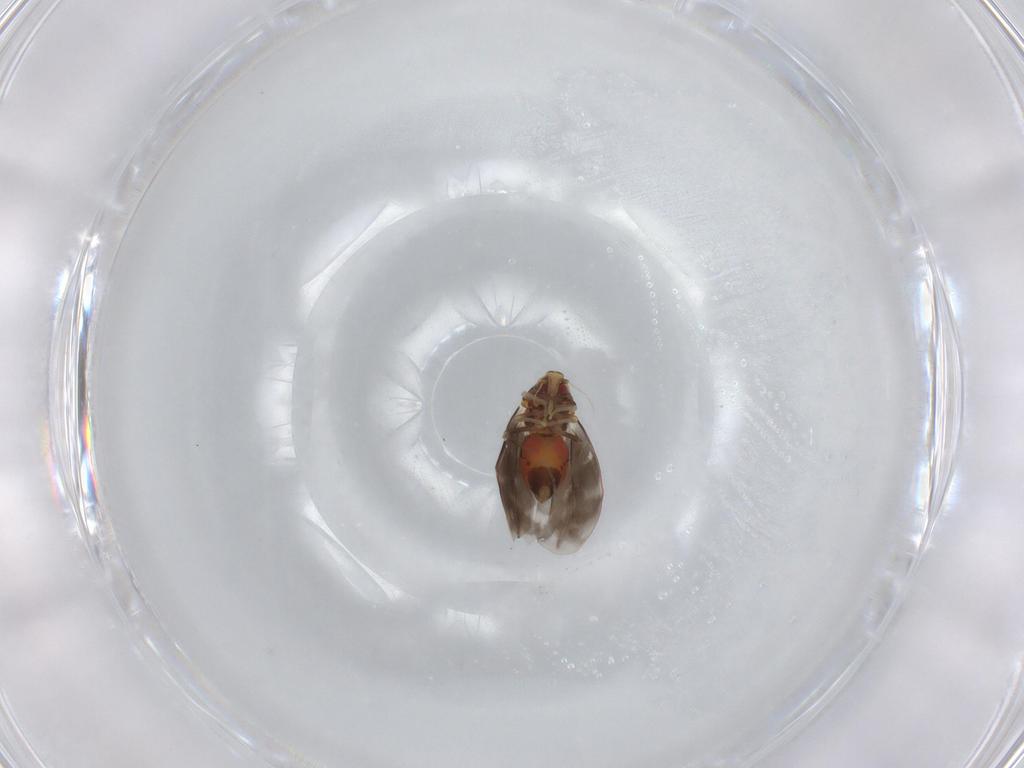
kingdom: Animalia
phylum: Arthropoda
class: Insecta
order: Hemiptera
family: Aleyrodidae
